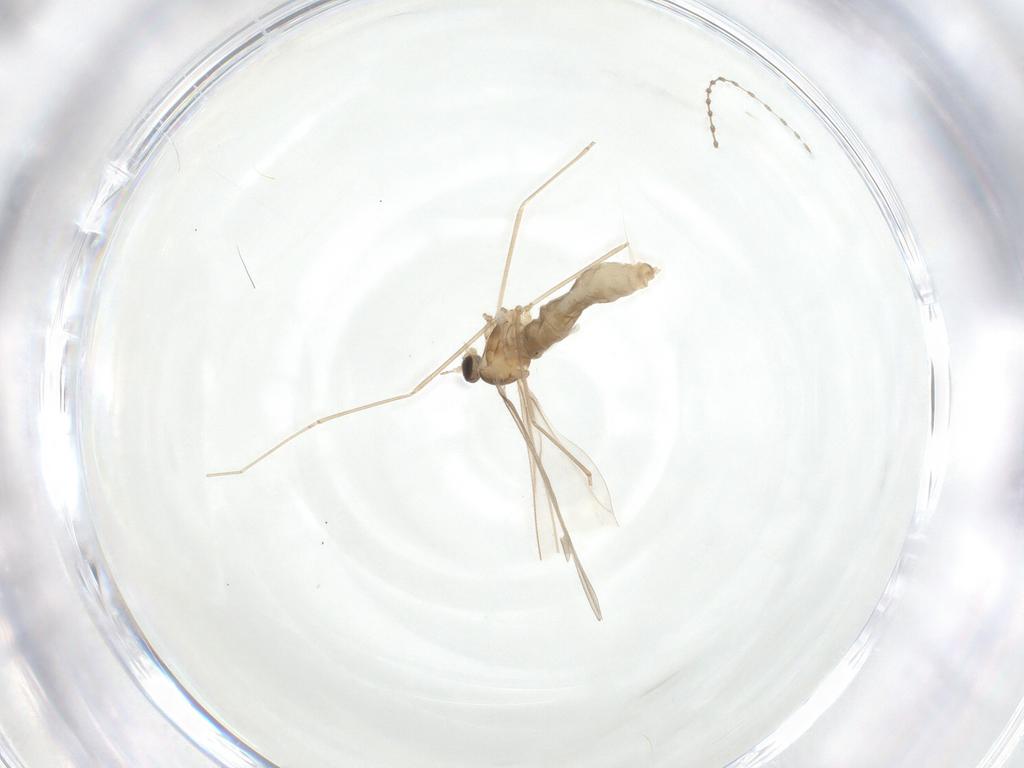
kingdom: Animalia
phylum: Arthropoda
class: Insecta
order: Diptera
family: Cecidomyiidae
